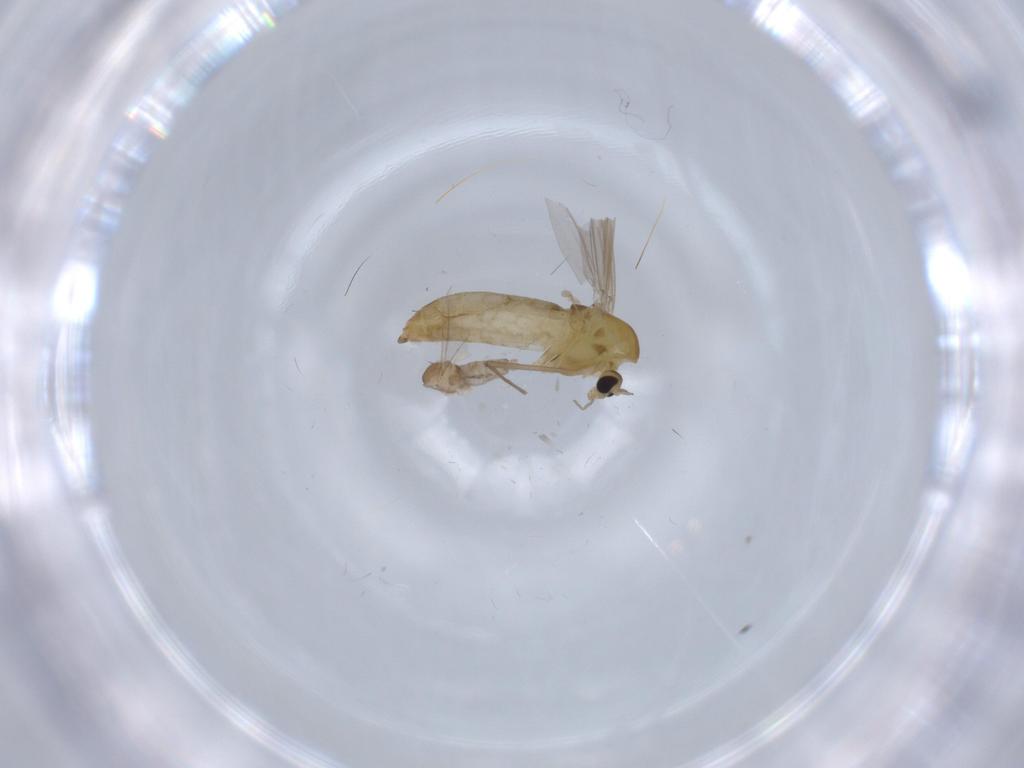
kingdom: Animalia
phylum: Arthropoda
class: Insecta
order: Diptera
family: Chironomidae
